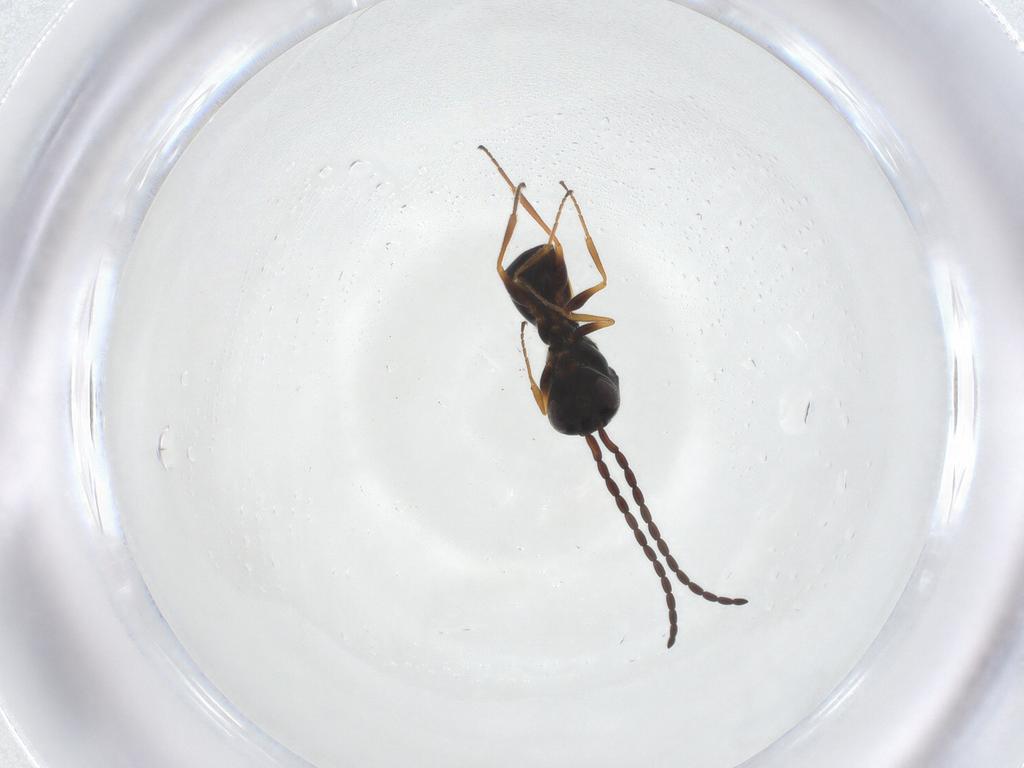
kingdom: Animalia
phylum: Arthropoda
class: Insecta
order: Hymenoptera
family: Figitidae
